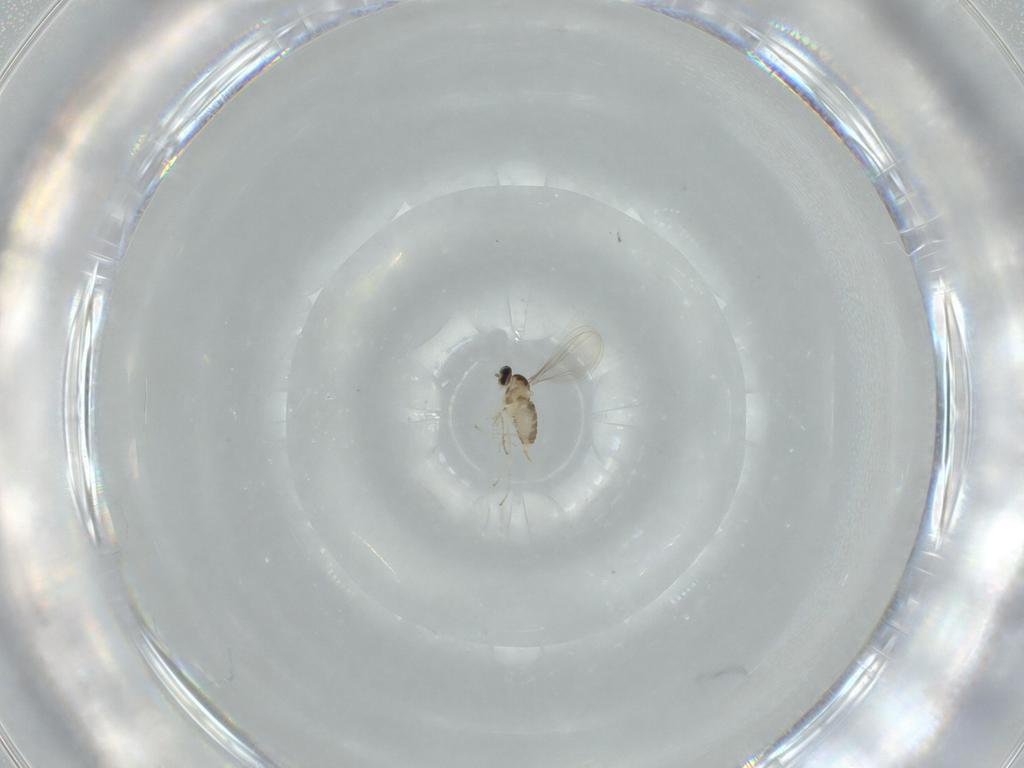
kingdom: Animalia
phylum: Arthropoda
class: Insecta
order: Diptera
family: Cecidomyiidae
